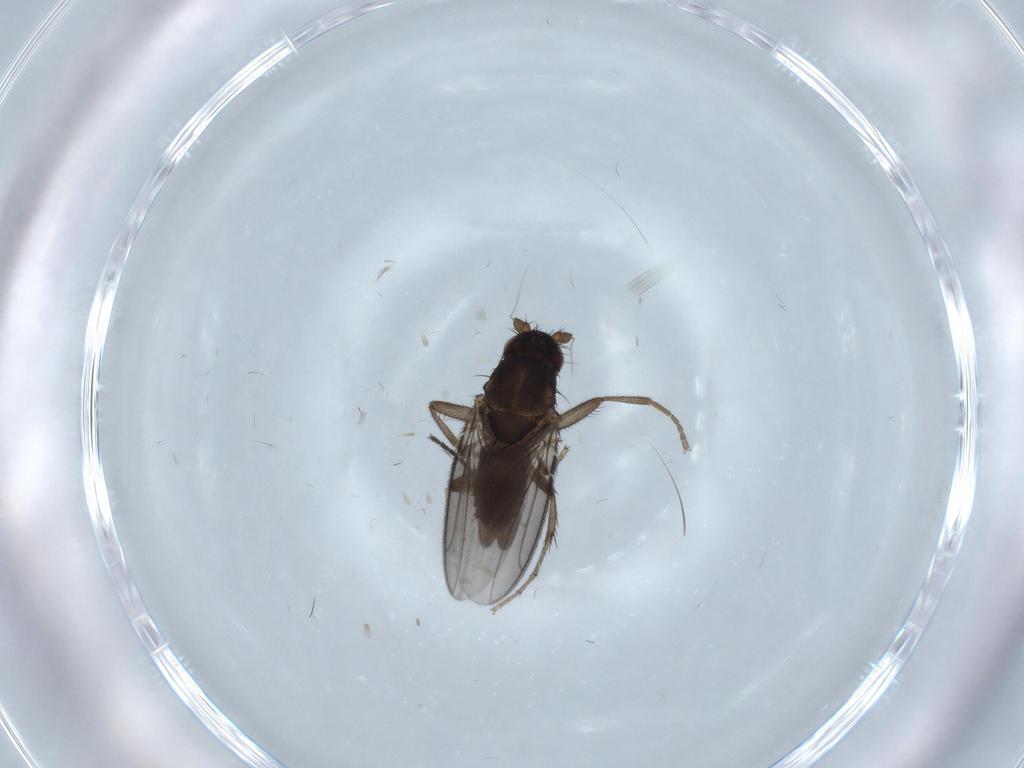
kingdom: Animalia
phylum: Arthropoda
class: Insecta
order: Diptera
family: Sphaeroceridae
